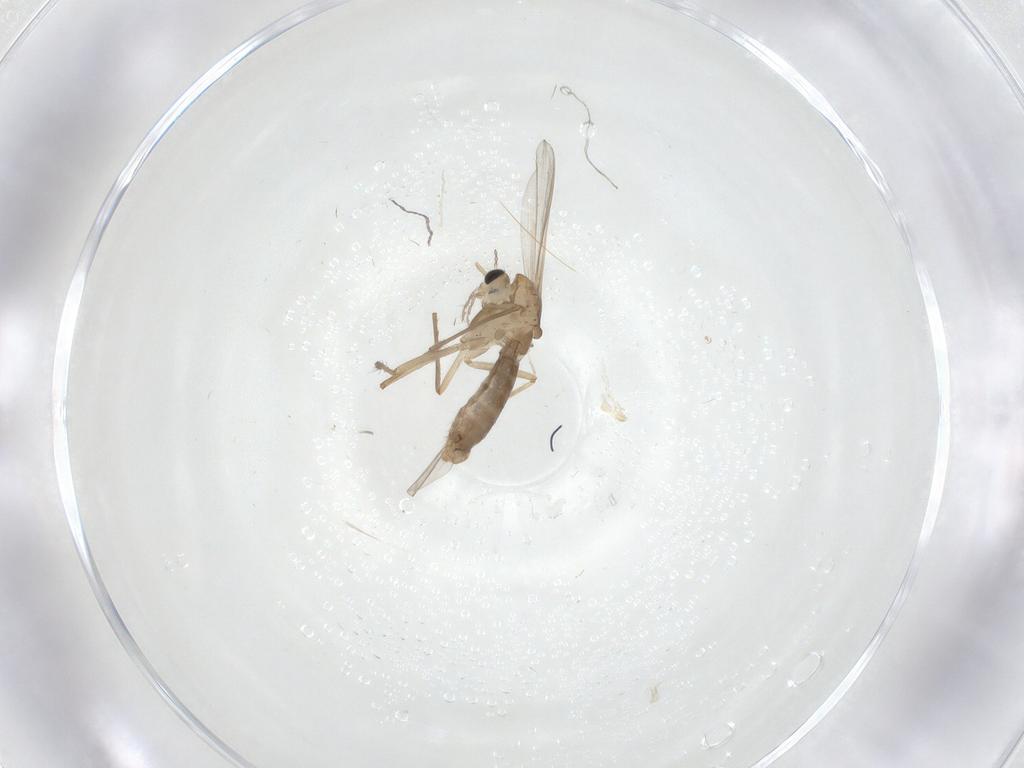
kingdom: Animalia
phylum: Arthropoda
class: Insecta
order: Diptera
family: Chironomidae
